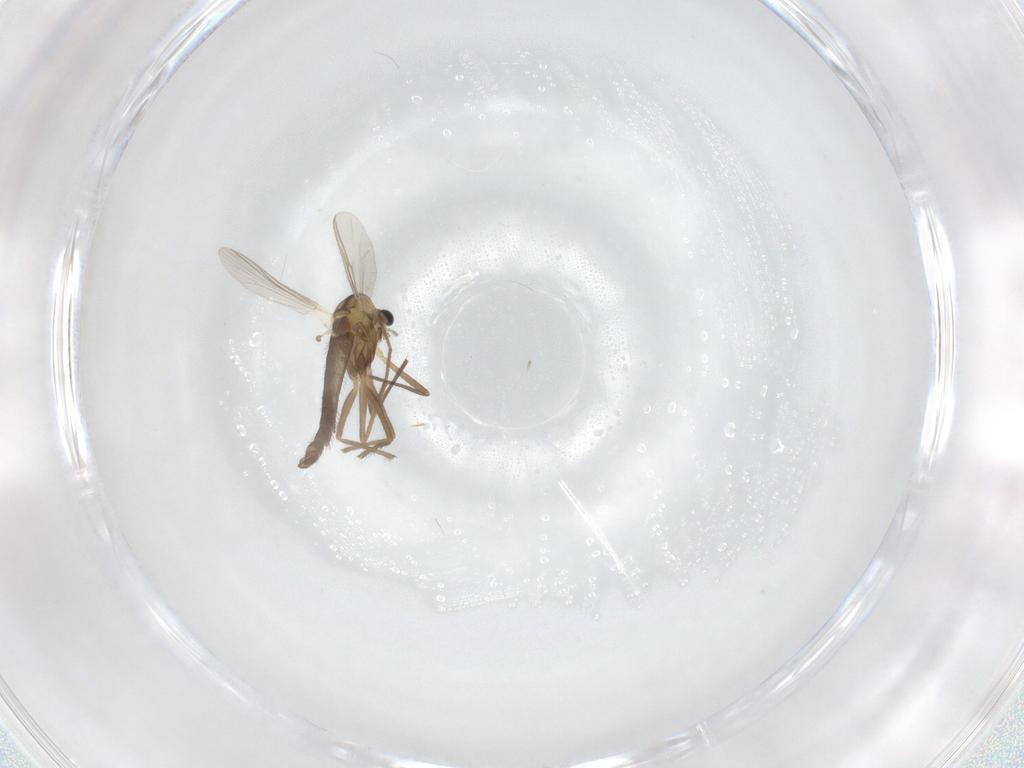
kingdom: Animalia
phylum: Arthropoda
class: Insecta
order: Diptera
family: Chironomidae
